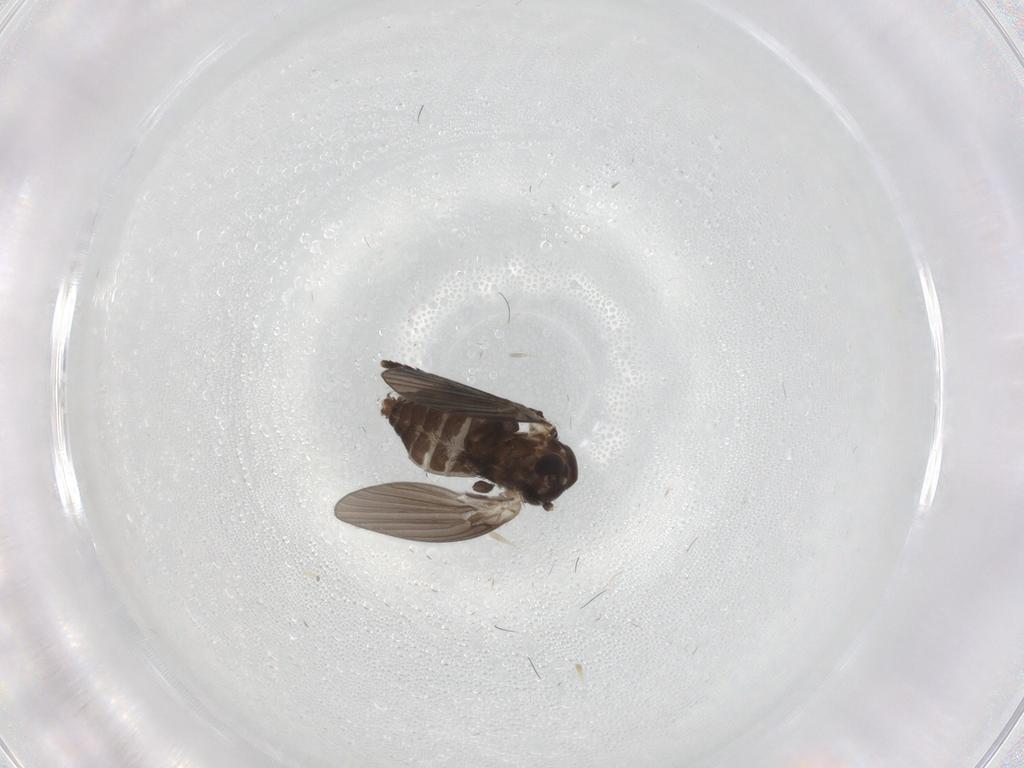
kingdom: Animalia
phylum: Arthropoda
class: Insecta
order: Diptera
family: Psychodidae
